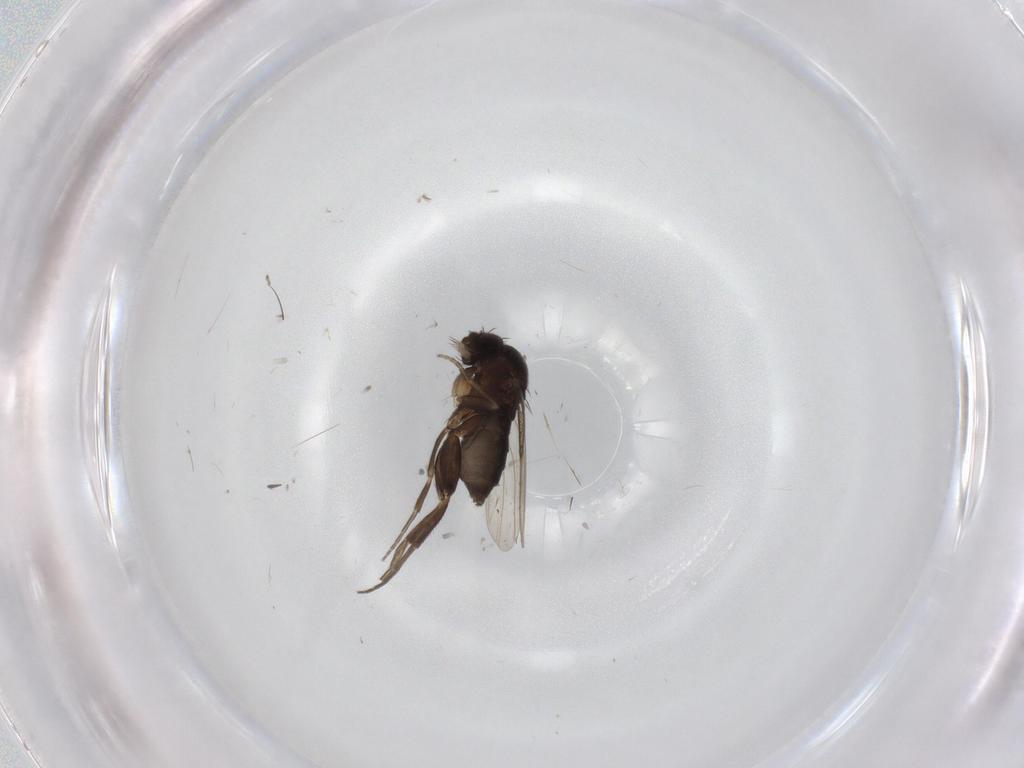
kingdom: Animalia
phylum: Arthropoda
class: Insecta
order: Diptera
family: Phoridae
